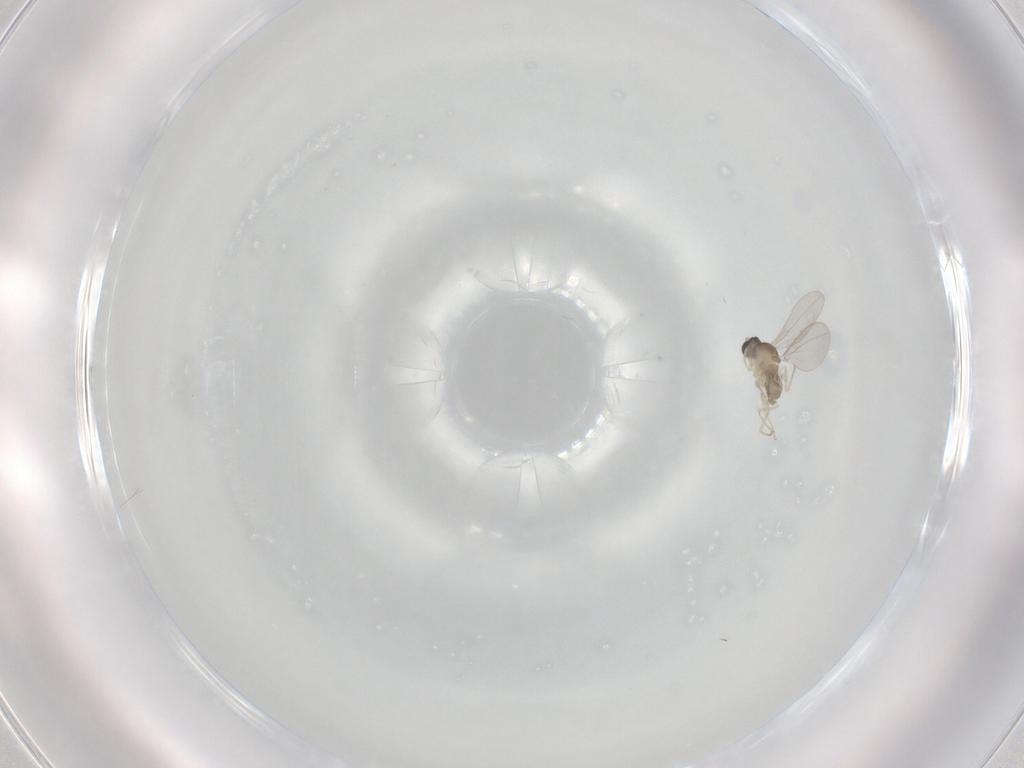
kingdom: Animalia
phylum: Arthropoda
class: Insecta
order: Diptera
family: Cecidomyiidae
